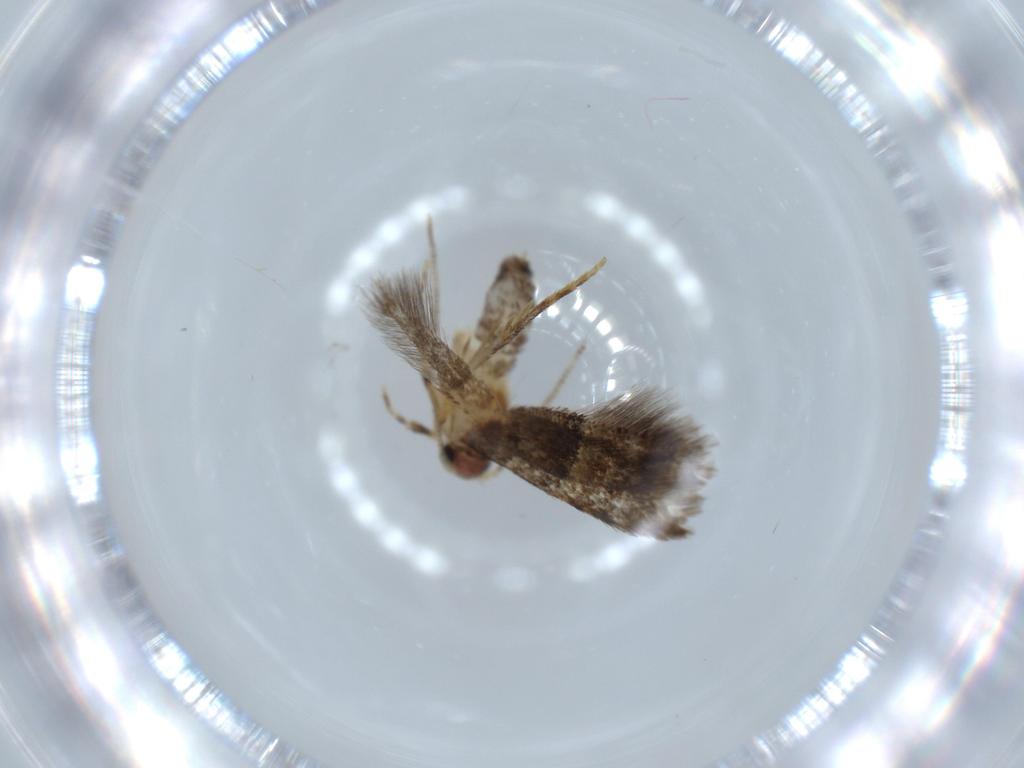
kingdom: Animalia
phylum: Arthropoda
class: Insecta
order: Lepidoptera
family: Tineidae
